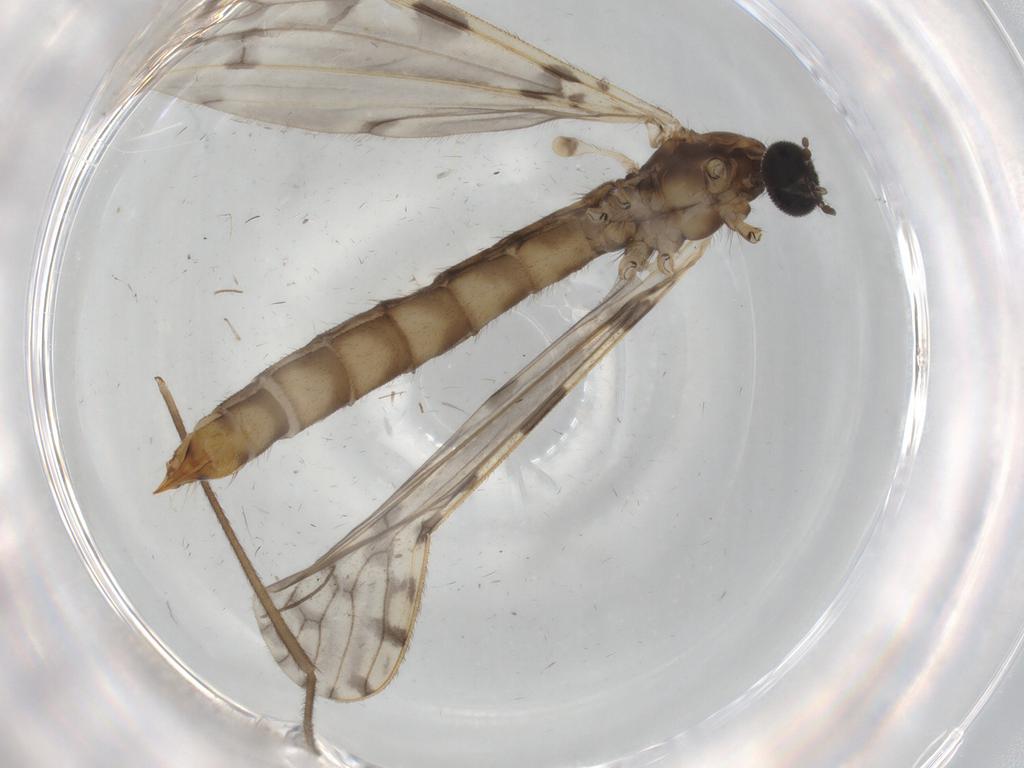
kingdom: Animalia
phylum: Arthropoda
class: Insecta
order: Diptera
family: Limoniidae
